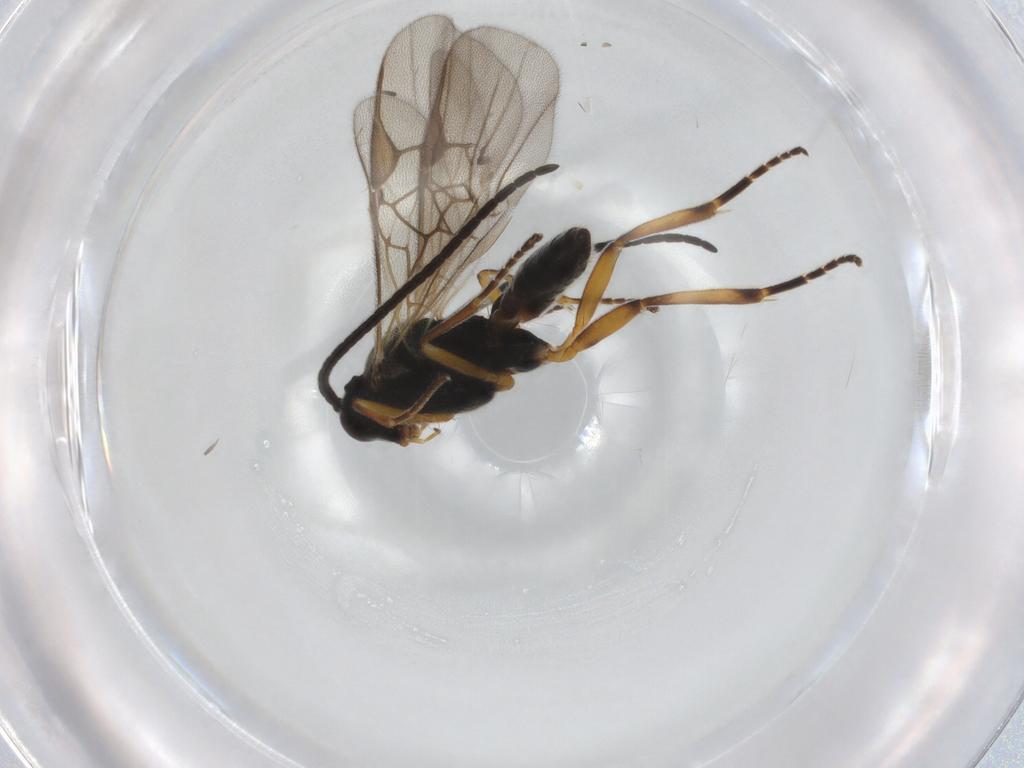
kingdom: Animalia
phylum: Arthropoda
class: Insecta
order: Hymenoptera
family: Braconidae
